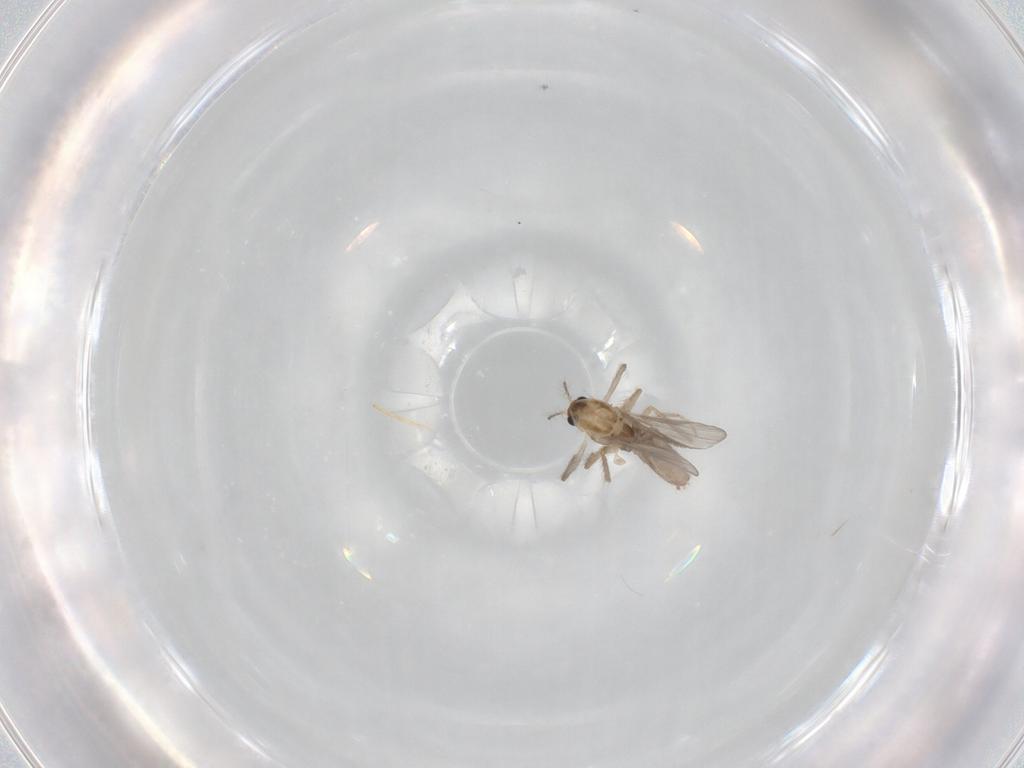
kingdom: Animalia
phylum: Arthropoda
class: Insecta
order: Diptera
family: Chironomidae
